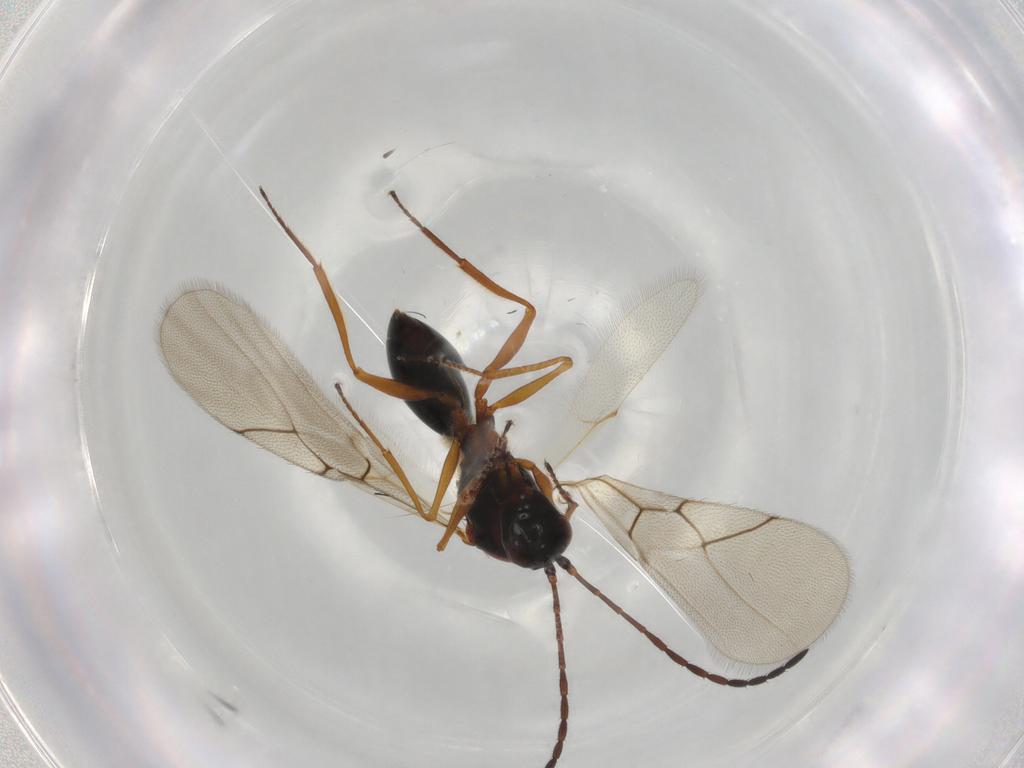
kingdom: Animalia
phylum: Arthropoda
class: Insecta
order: Hymenoptera
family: Figitidae
